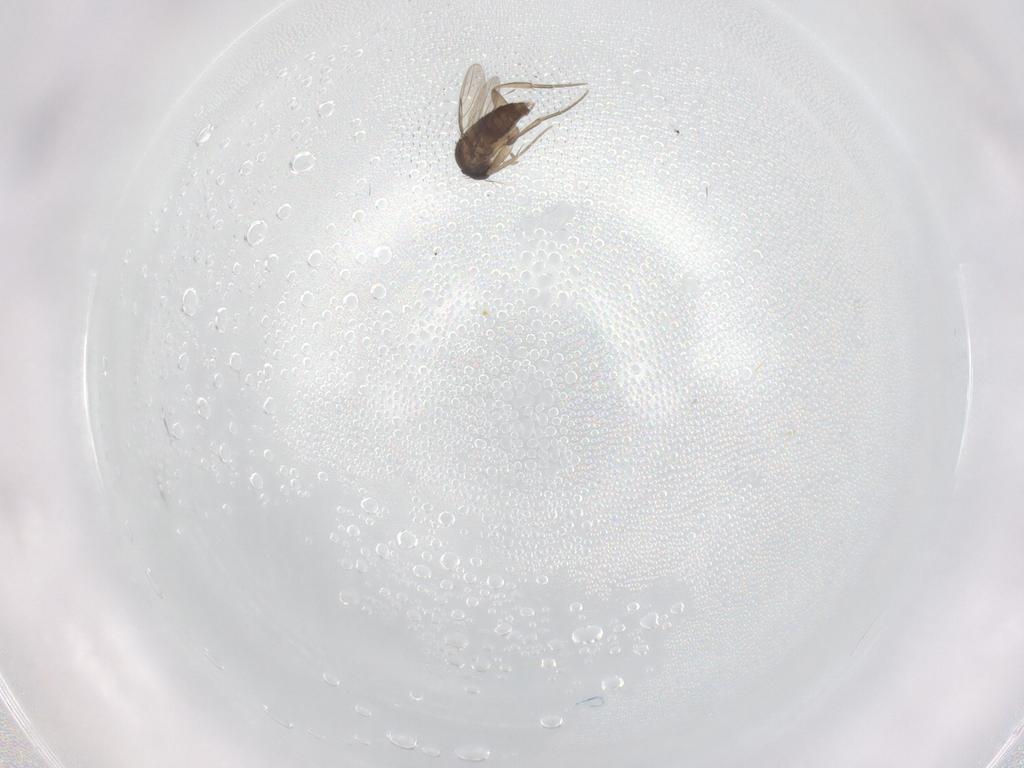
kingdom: Animalia
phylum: Arthropoda
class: Insecta
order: Diptera
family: Phoridae
